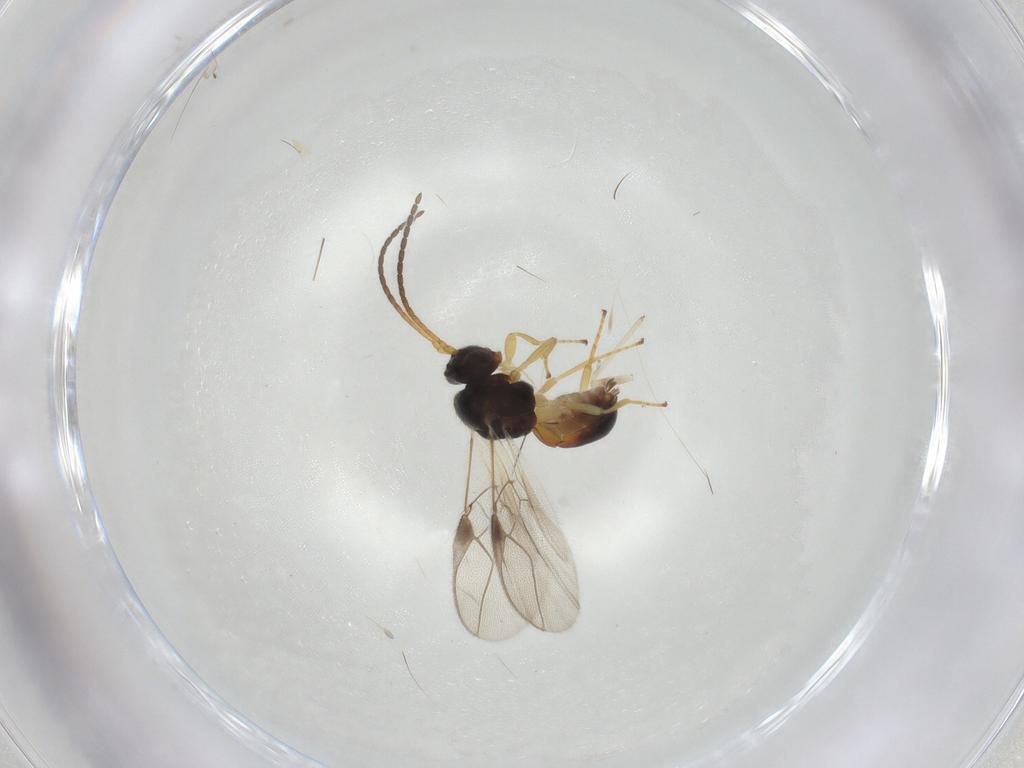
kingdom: Animalia
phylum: Arthropoda
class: Insecta
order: Hymenoptera
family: Braconidae
